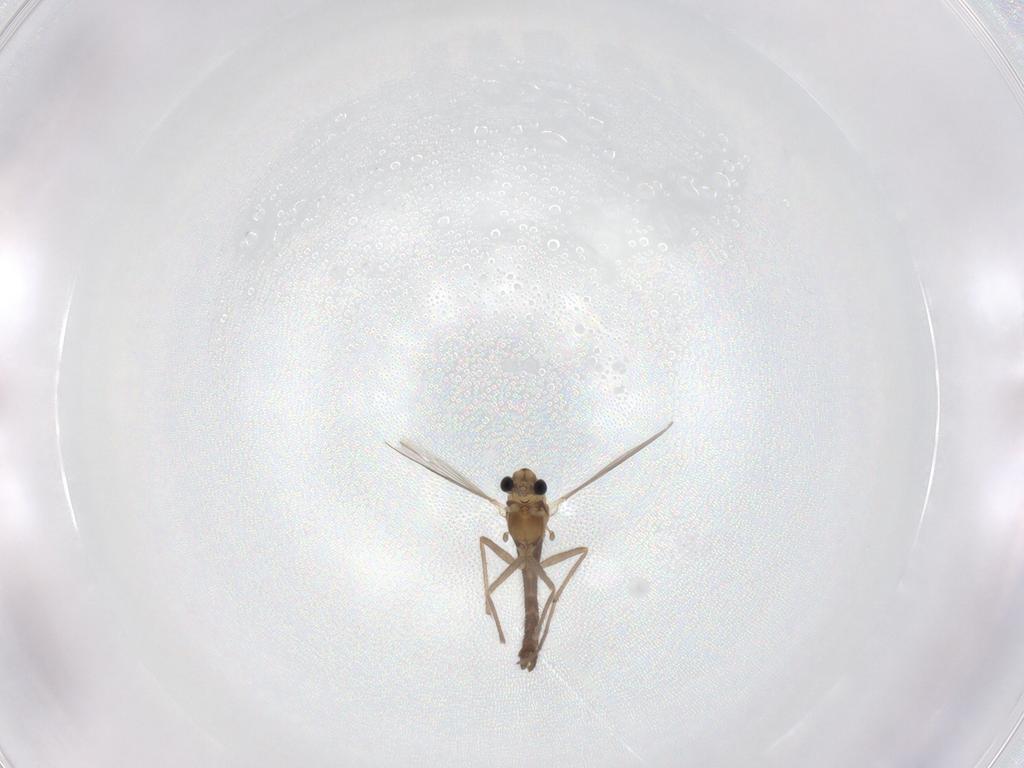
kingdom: Animalia
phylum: Arthropoda
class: Insecta
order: Diptera
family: Chironomidae
